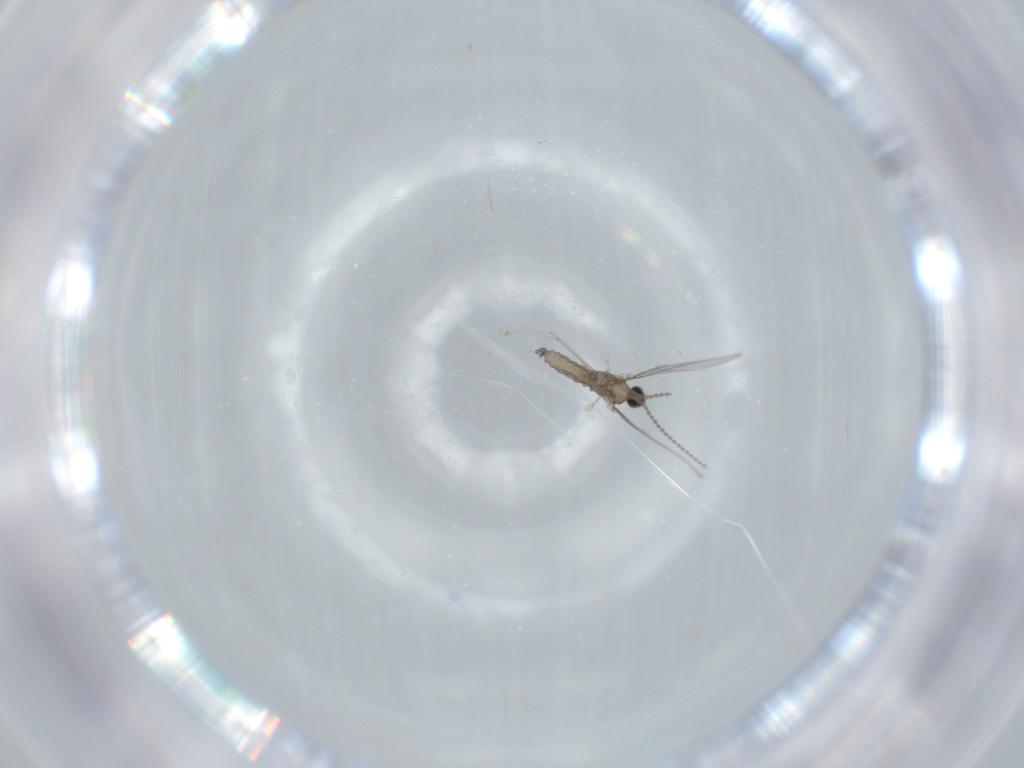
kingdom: Animalia
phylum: Arthropoda
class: Insecta
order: Diptera
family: Cecidomyiidae
